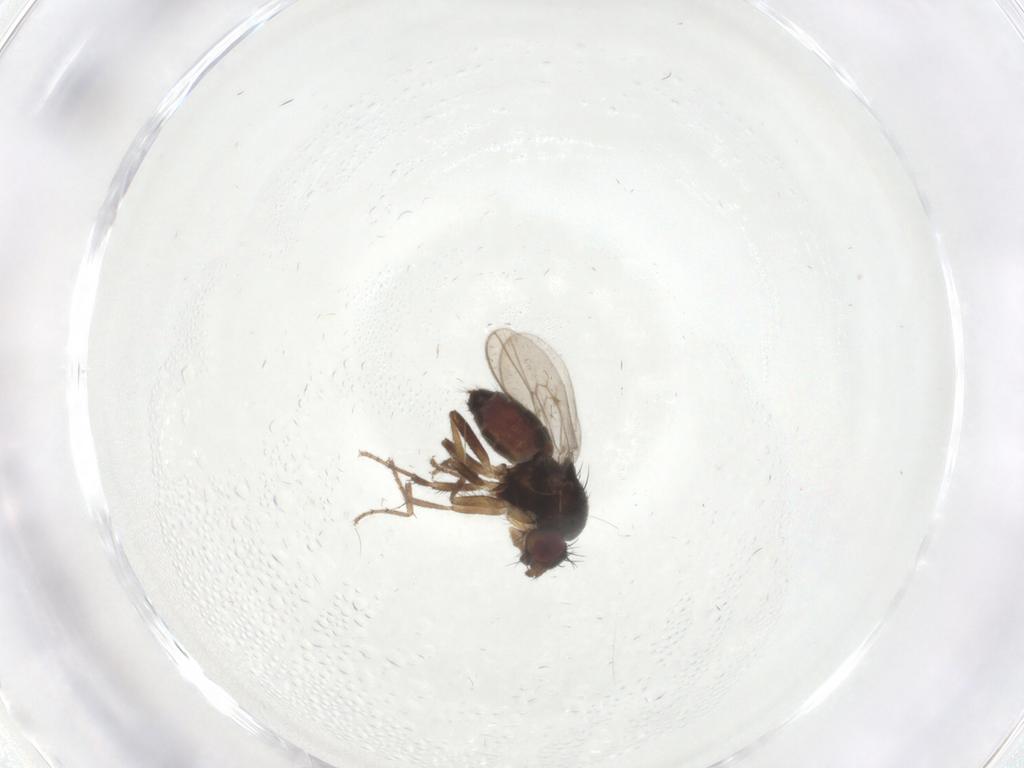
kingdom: Animalia
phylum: Arthropoda
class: Insecta
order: Diptera
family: Sphaeroceridae
